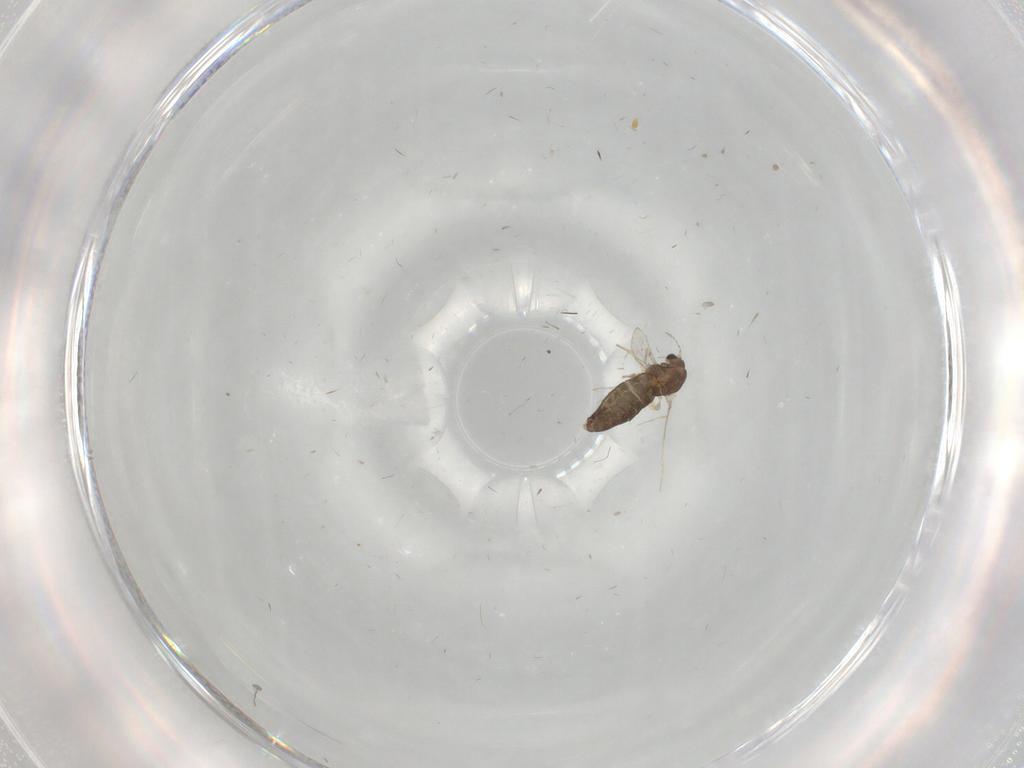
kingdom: Animalia
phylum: Arthropoda
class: Insecta
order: Diptera
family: Chironomidae
